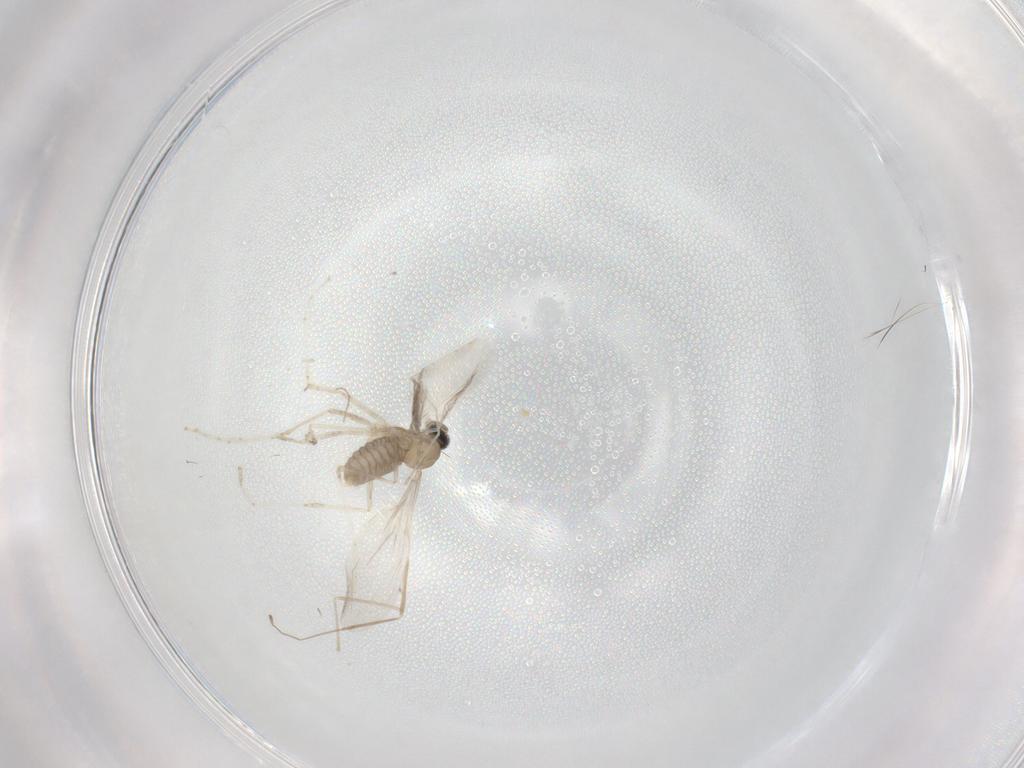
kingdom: Animalia
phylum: Arthropoda
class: Insecta
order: Diptera
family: Cecidomyiidae
